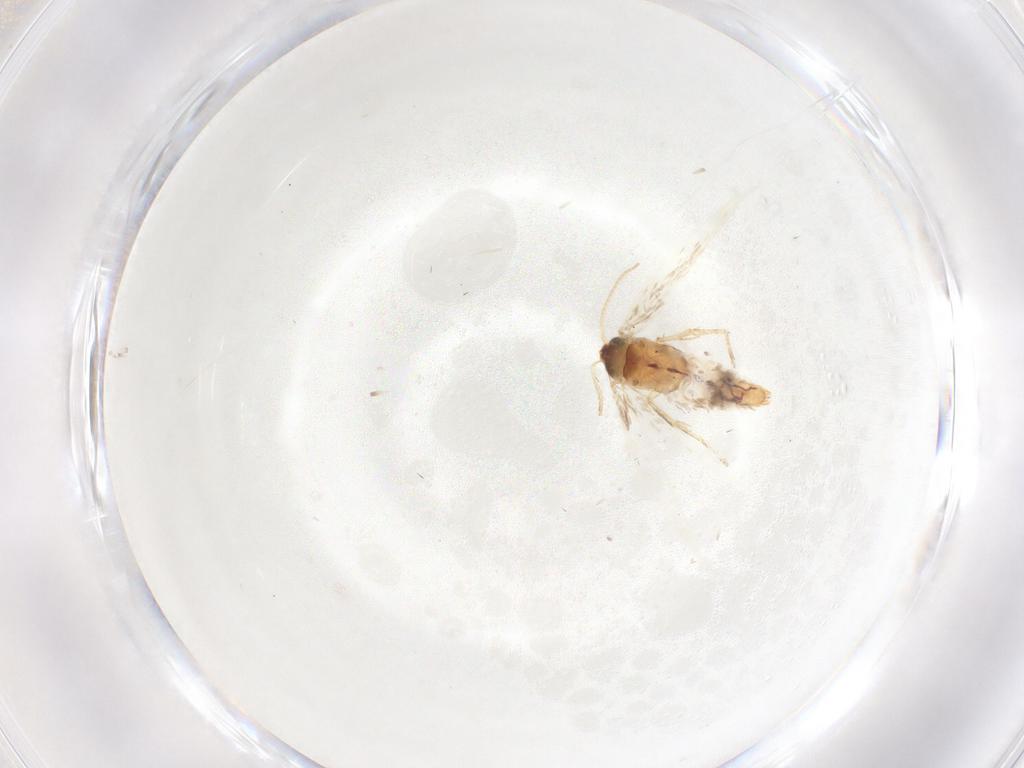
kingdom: Animalia
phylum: Arthropoda
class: Insecta
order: Lepidoptera
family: Nepticulidae
